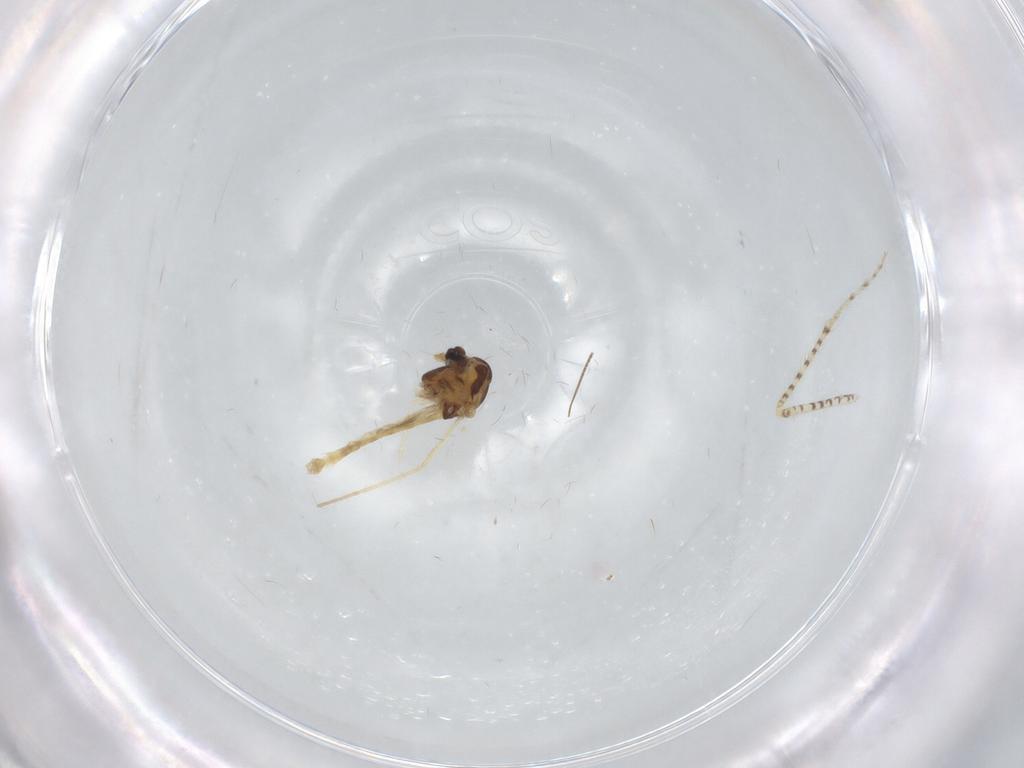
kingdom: Animalia
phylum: Arthropoda
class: Insecta
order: Diptera
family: Chironomidae
